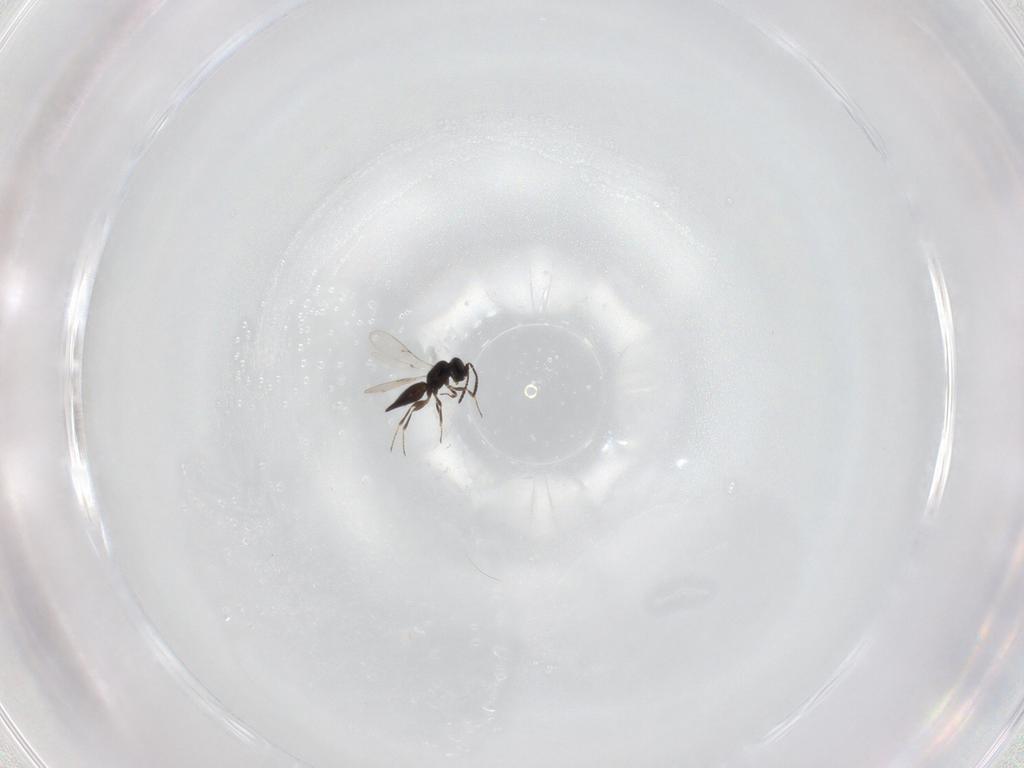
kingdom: Animalia
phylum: Arthropoda
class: Insecta
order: Hymenoptera
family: Scelionidae
